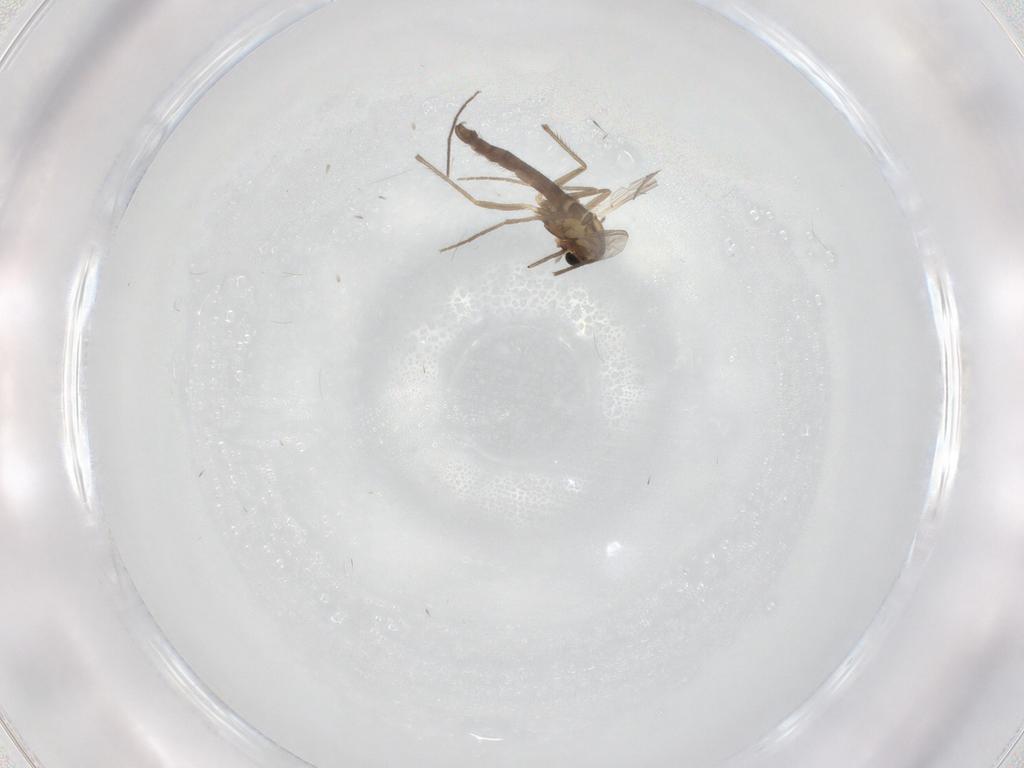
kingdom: Animalia
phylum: Arthropoda
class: Insecta
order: Diptera
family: Chironomidae
